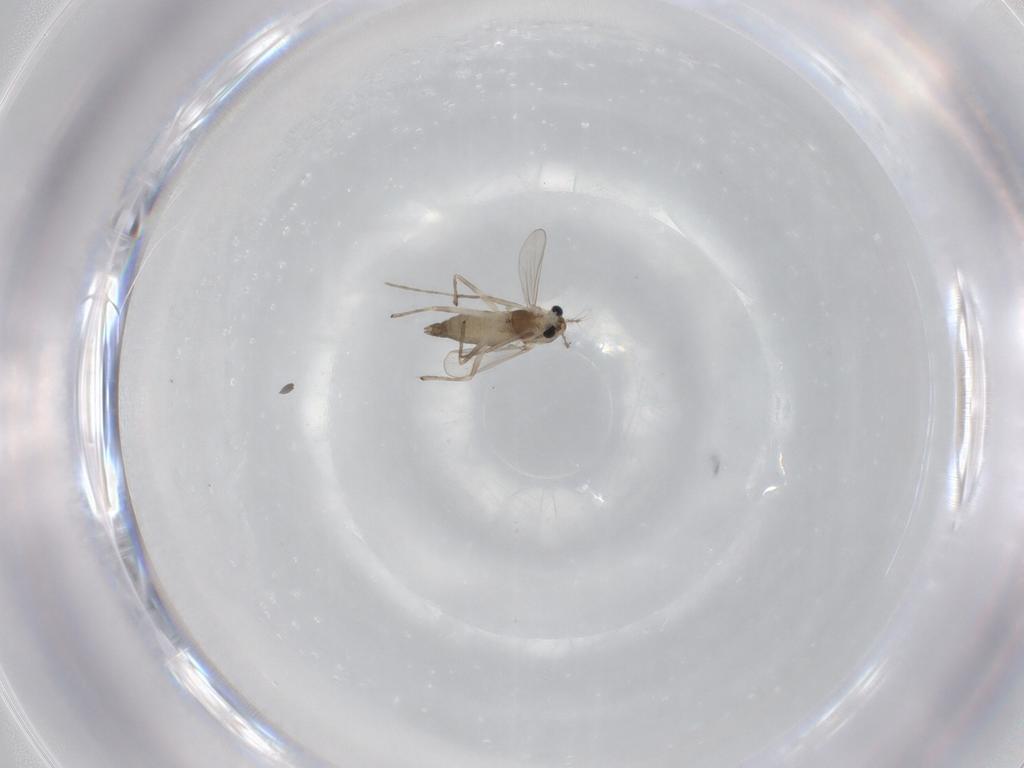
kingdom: Animalia
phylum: Arthropoda
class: Insecta
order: Diptera
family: Chironomidae
